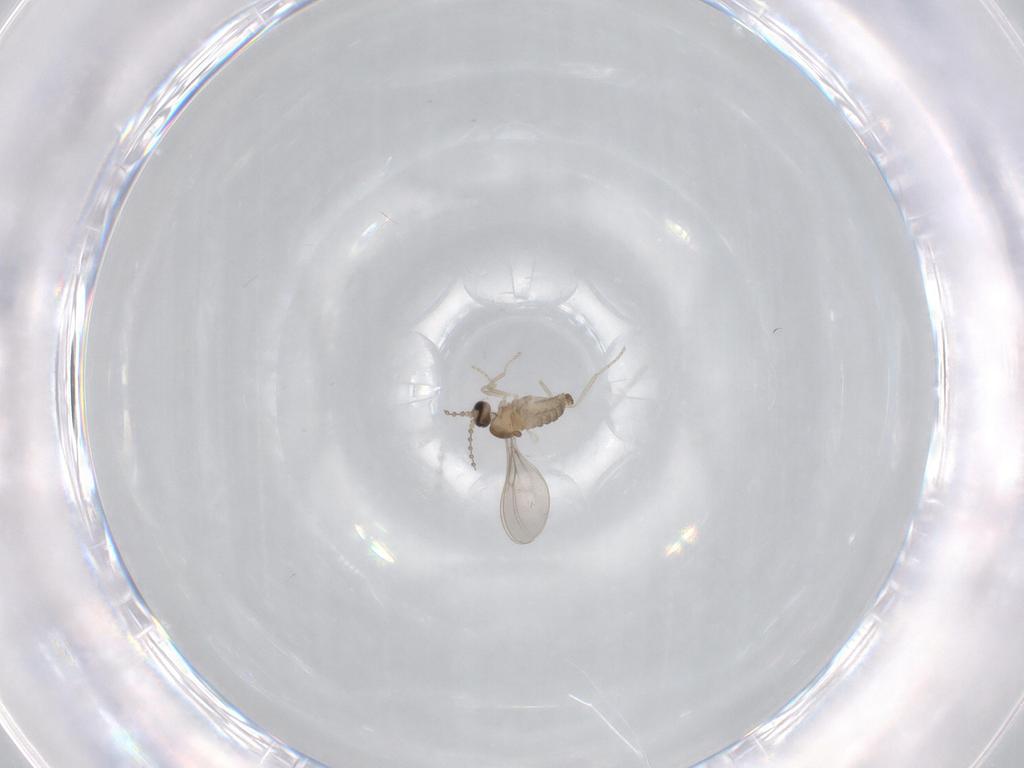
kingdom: Animalia
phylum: Arthropoda
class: Insecta
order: Diptera
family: Cecidomyiidae
